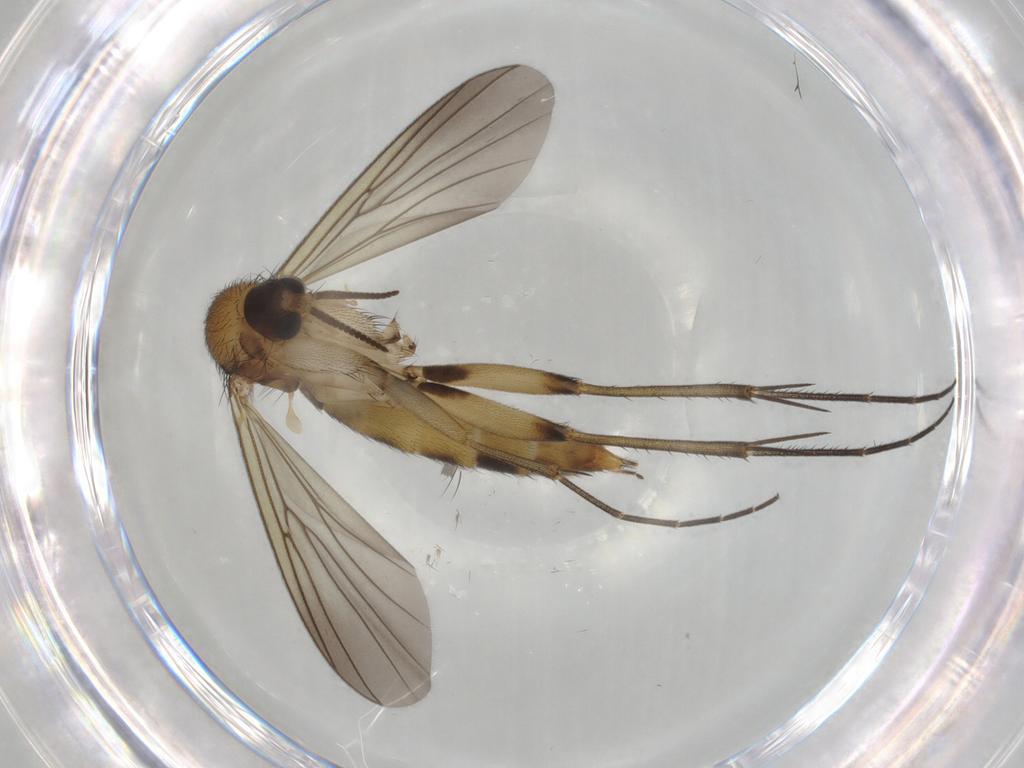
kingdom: Animalia
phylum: Arthropoda
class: Insecta
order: Diptera
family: Mycetophilidae
